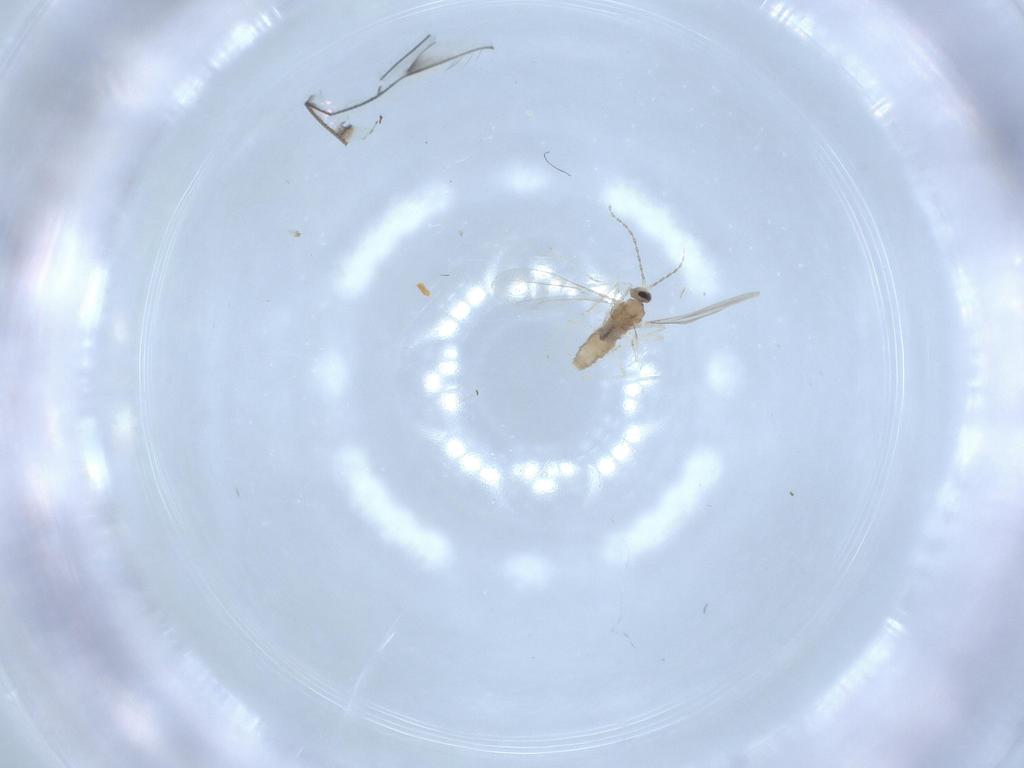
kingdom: Animalia
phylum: Arthropoda
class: Insecta
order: Diptera
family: Cecidomyiidae
